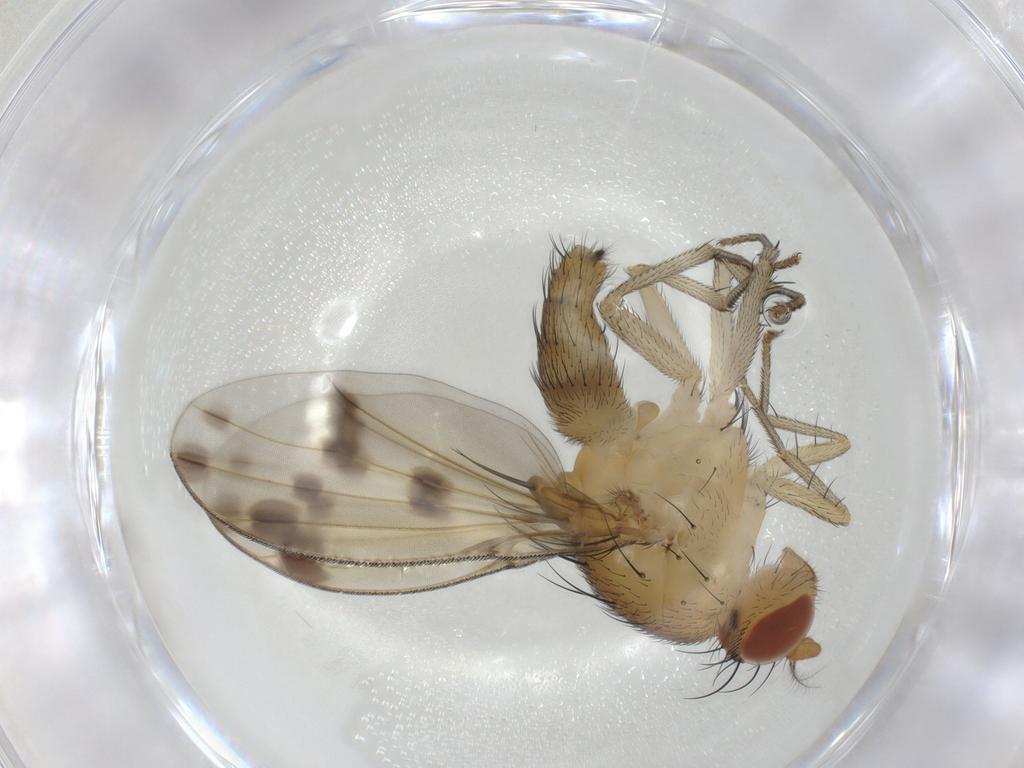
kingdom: Animalia
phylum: Arthropoda
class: Insecta
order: Diptera
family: Lauxaniidae
